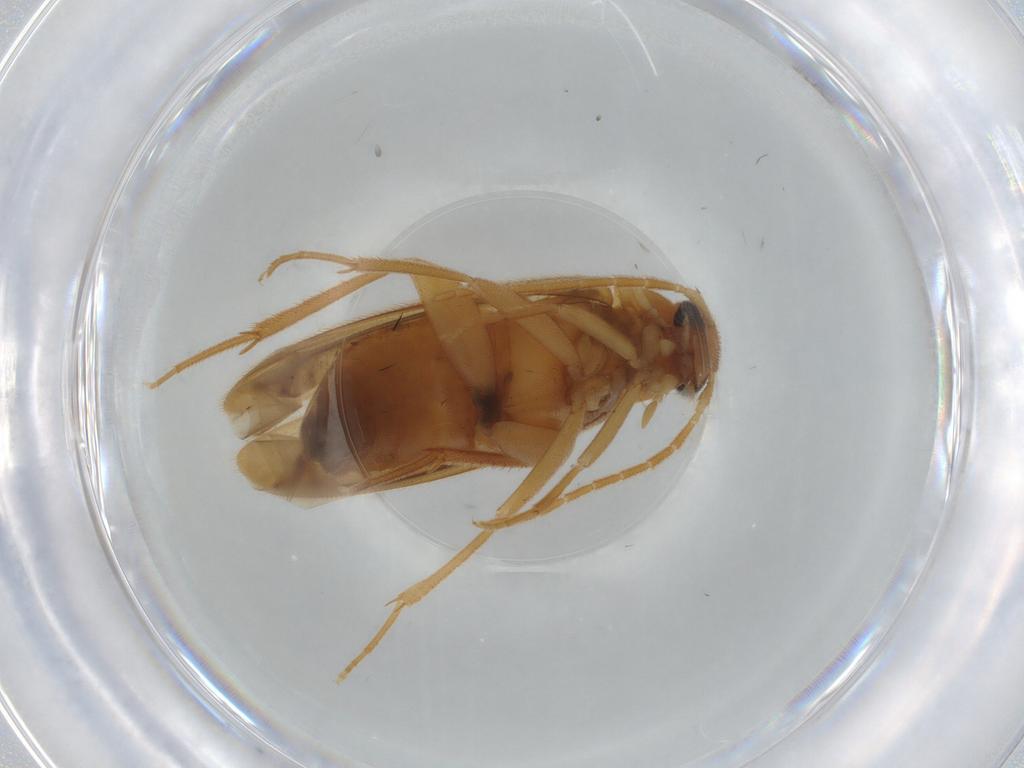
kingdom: Animalia
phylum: Arthropoda
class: Insecta
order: Coleoptera
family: Scraptiidae
